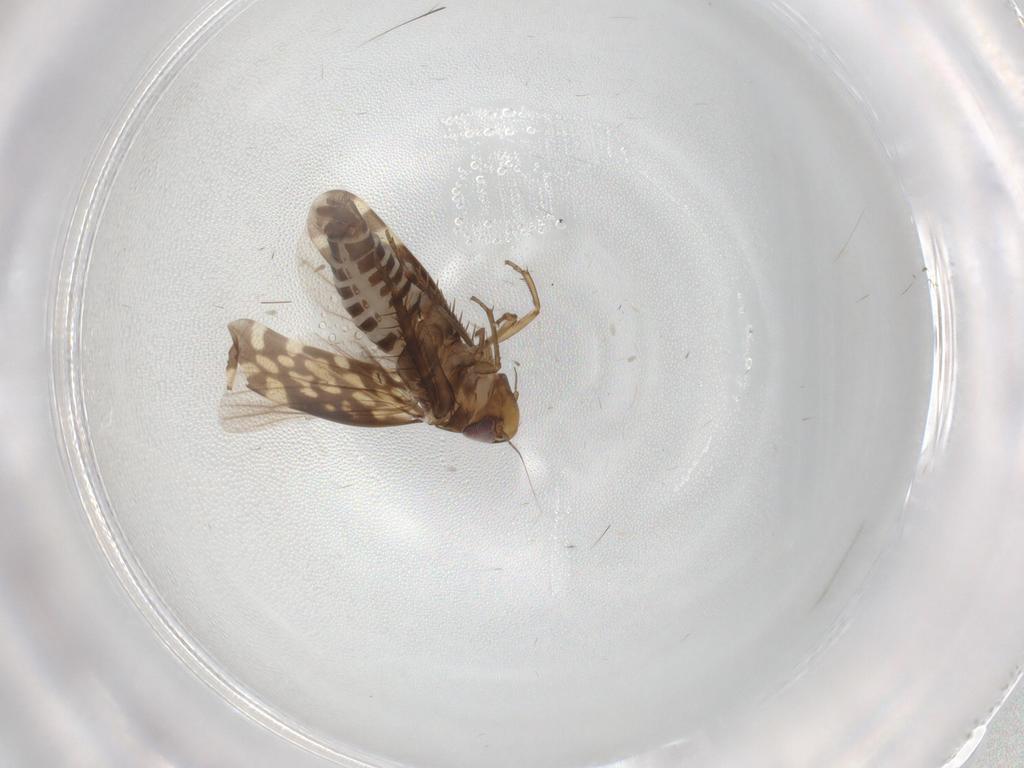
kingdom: Animalia
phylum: Arthropoda
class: Insecta
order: Hemiptera
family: Cicadellidae
